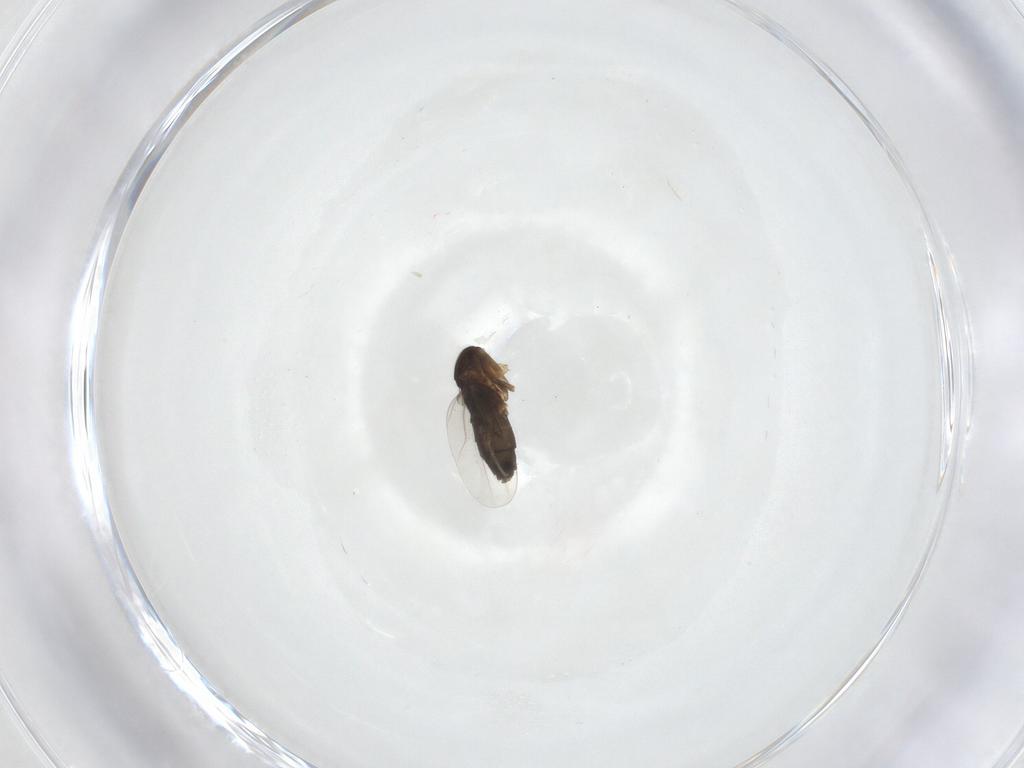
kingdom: Animalia
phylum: Arthropoda
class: Insecta
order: Diptera
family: Phoridae
